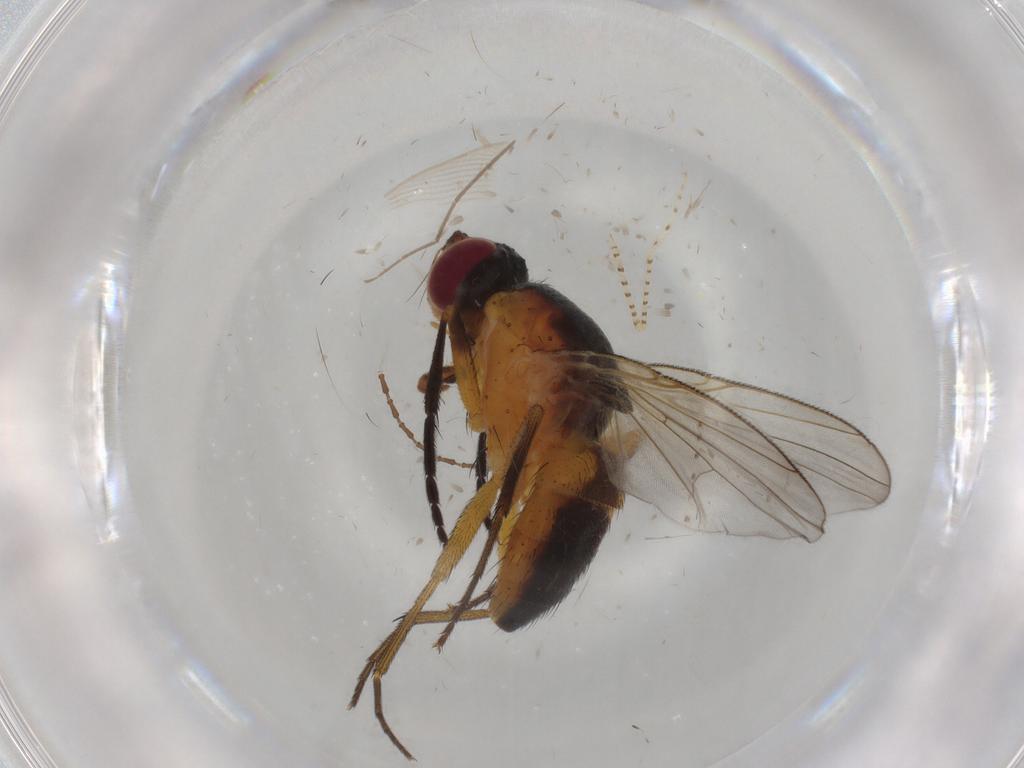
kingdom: Animalia
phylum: Arthropoda
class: Insecta
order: Diptera
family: Muscidae
